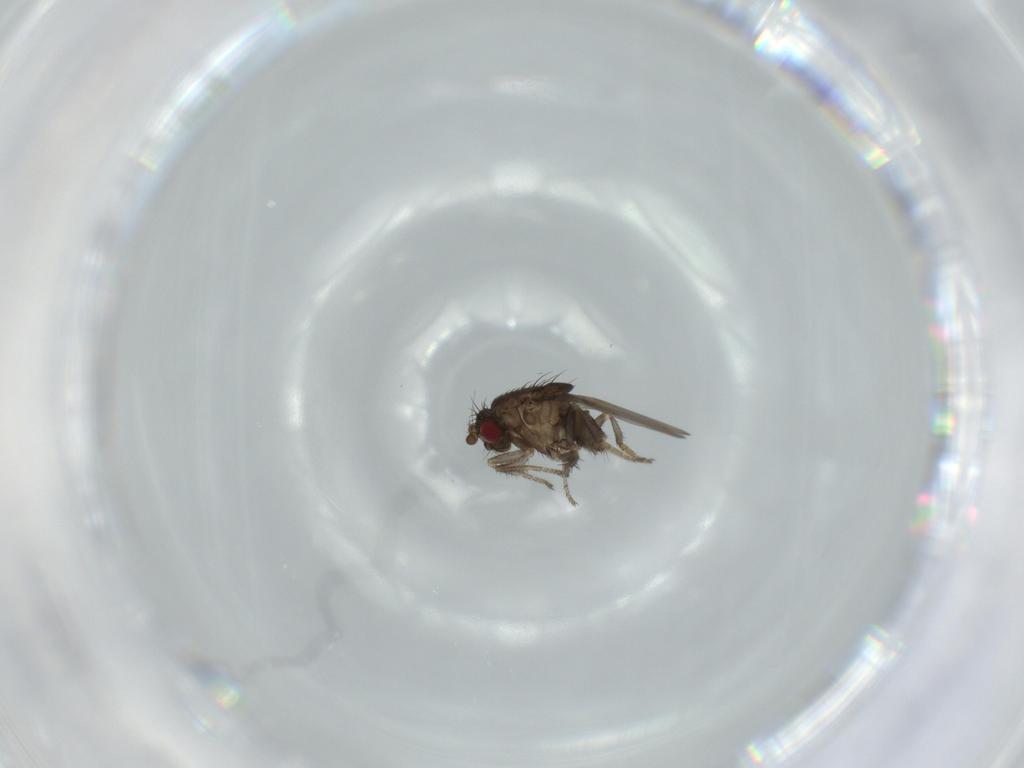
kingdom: Animalia
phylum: Arthropoda
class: Insecta
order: Diptera
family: Sphaeroceridae
